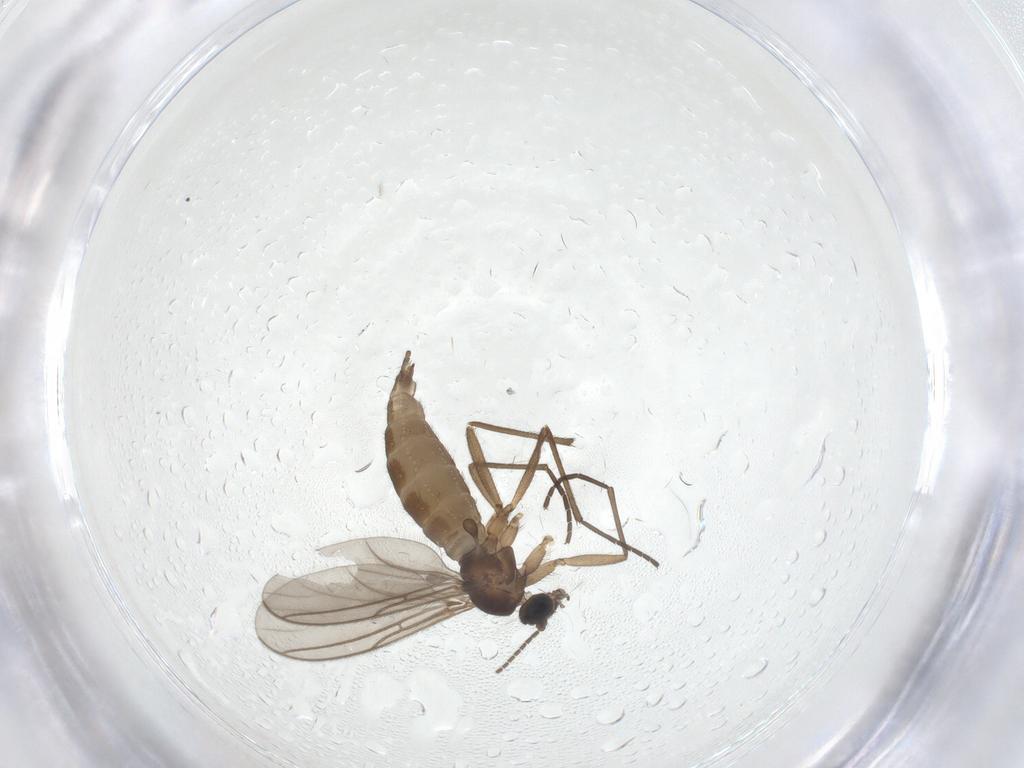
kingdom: Animalia
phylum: Arthropoda
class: Insecta
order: Diptera
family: Sciaridae
